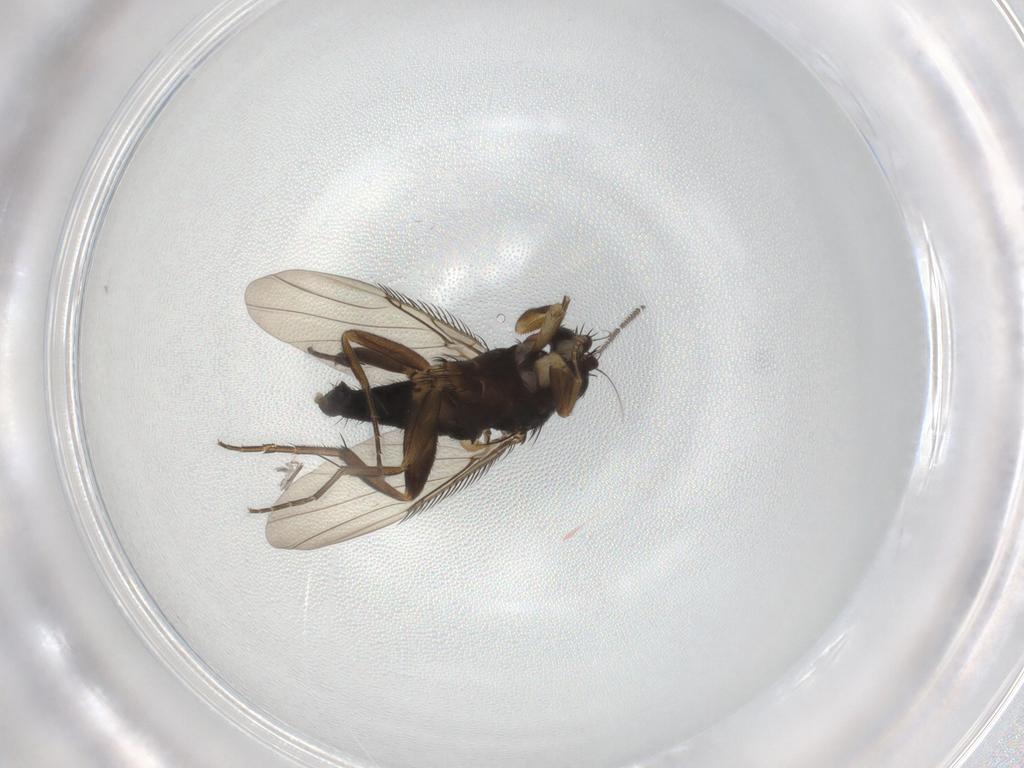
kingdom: Animalia
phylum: Arthropoda
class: Insecta
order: Diptera
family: Phoridae
